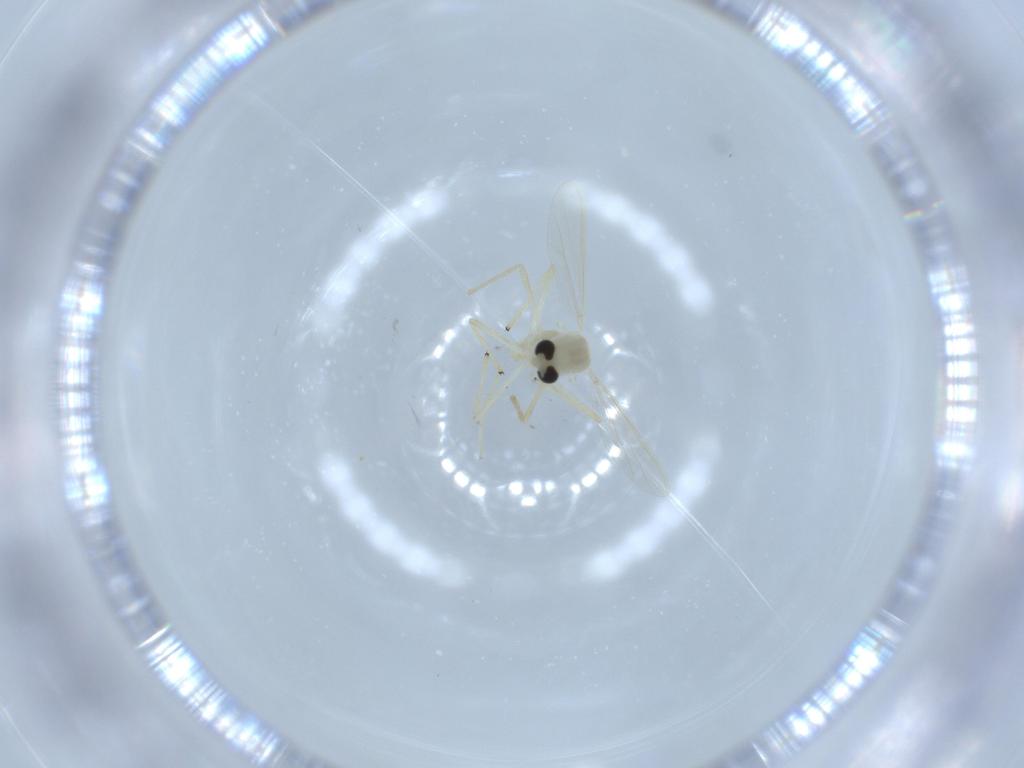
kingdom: Animalia
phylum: Arthropoda
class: Insecta
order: Diptera
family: Chironomidae
